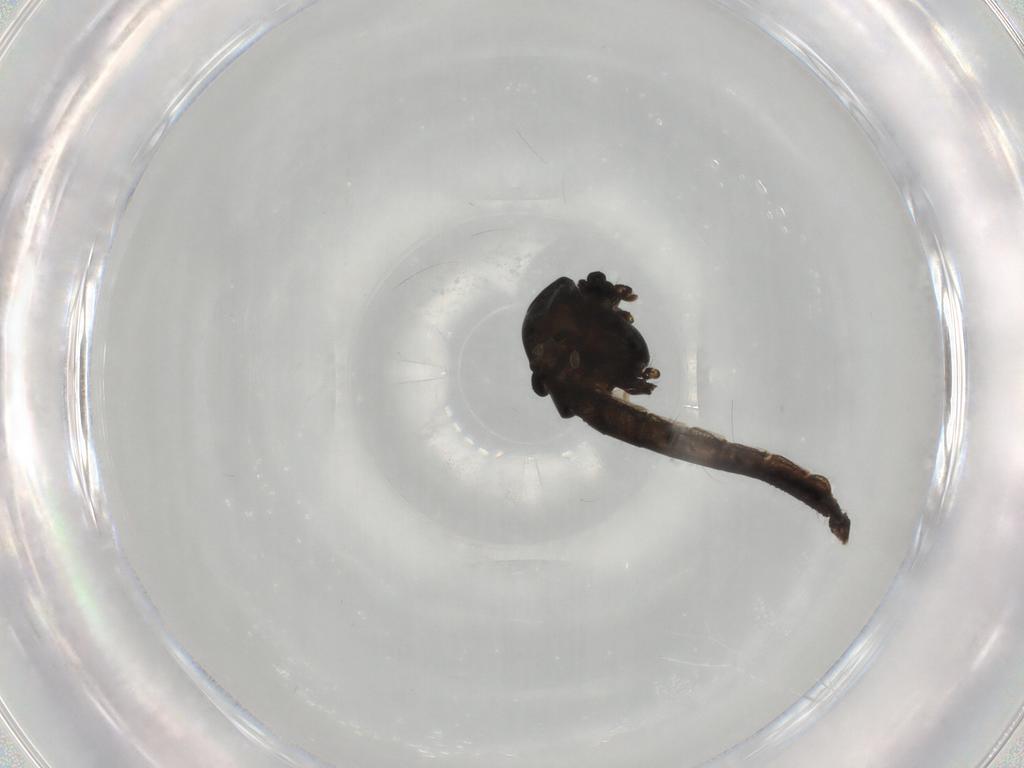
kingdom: Animalia
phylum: Arthropoda
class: Insecta
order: Diptera
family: Chironomidae
